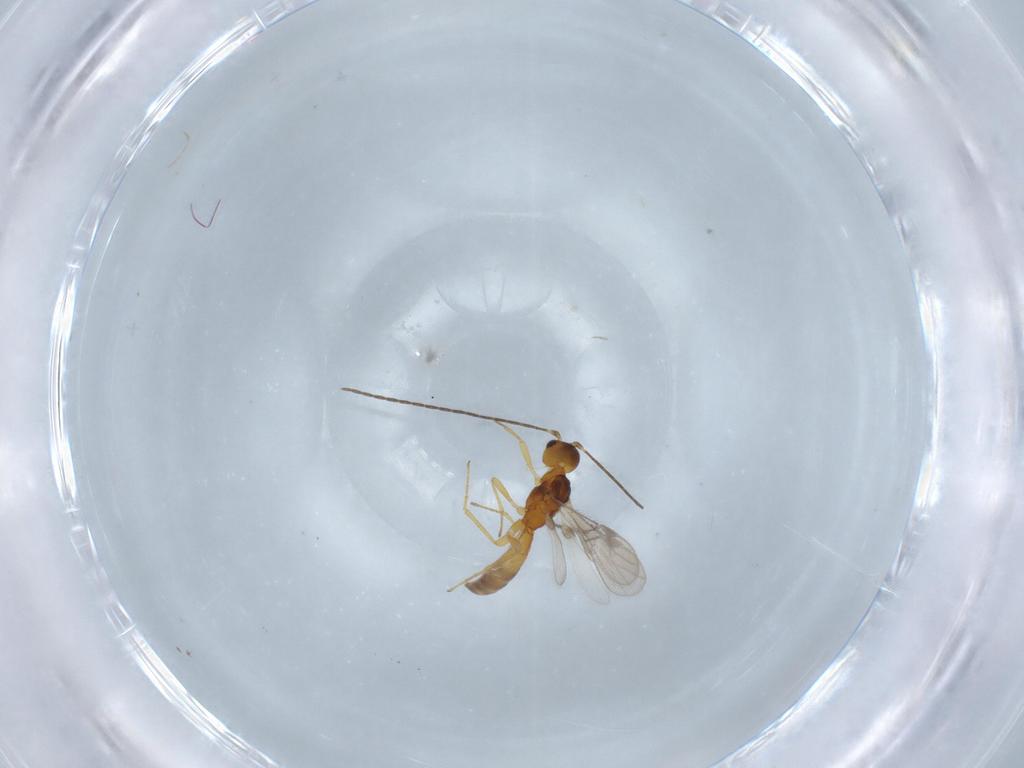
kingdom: Animalia
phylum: Arthropoda
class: Insecta
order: Hymenoptera
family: Braconidae
